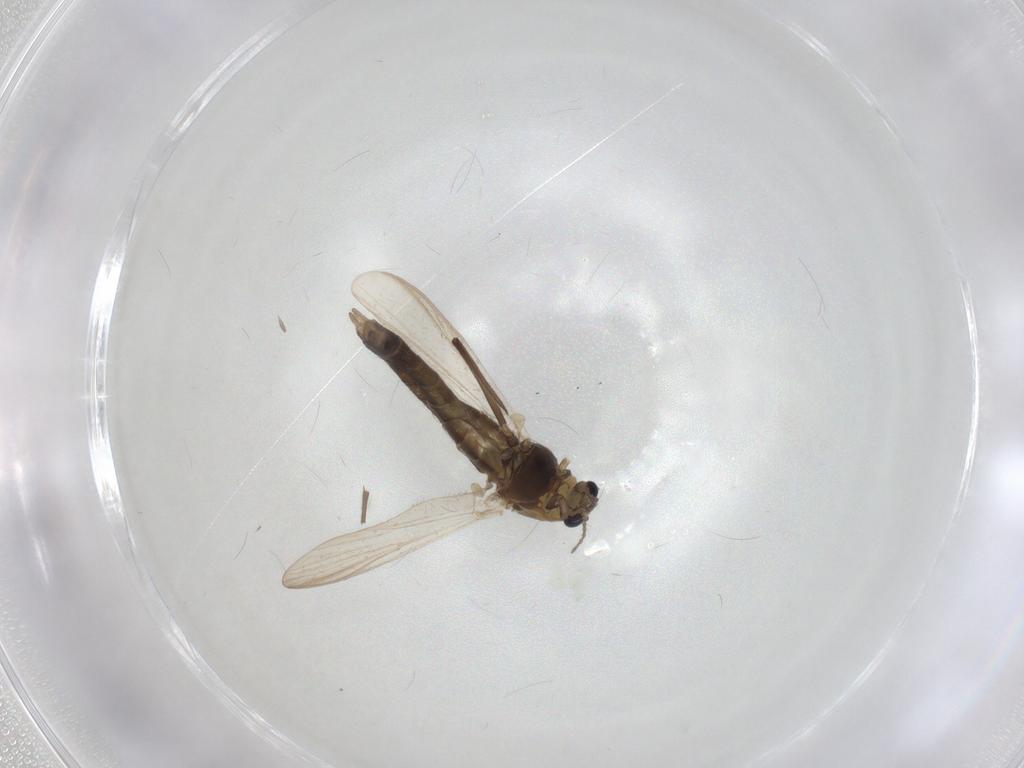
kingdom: Animalia
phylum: Arthropoda
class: Insecta
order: Diptera
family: Chironomidae
